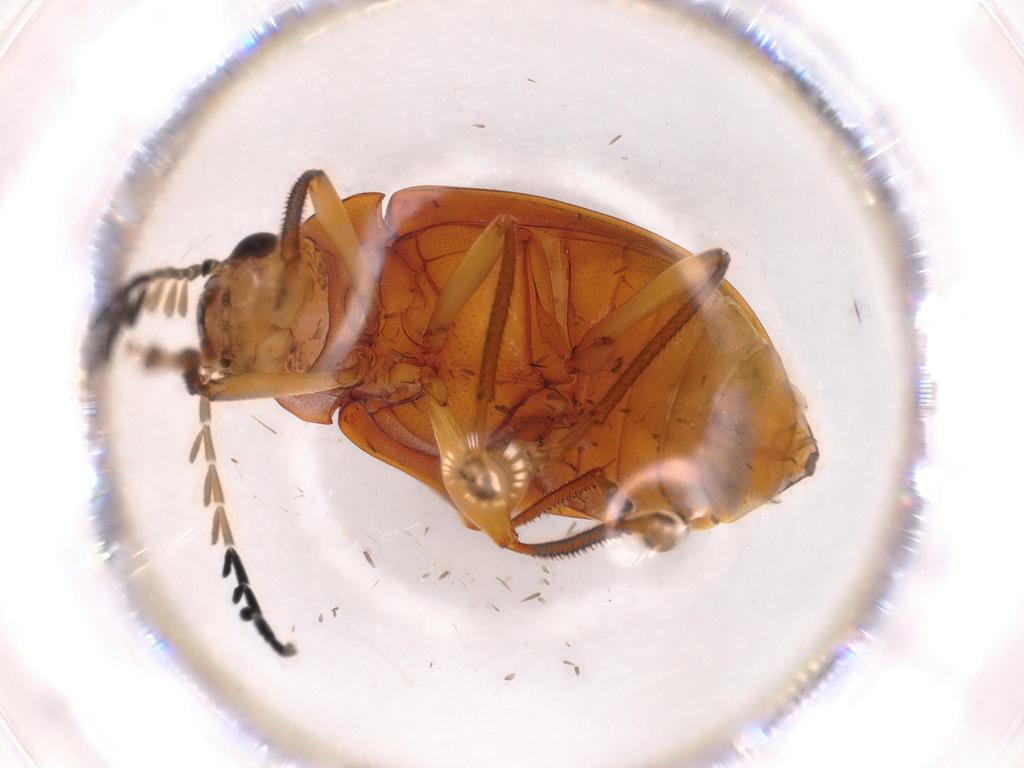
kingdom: Animalia
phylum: Arthropoda
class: Insecta
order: Coleoptera
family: Ptilodactylidae
